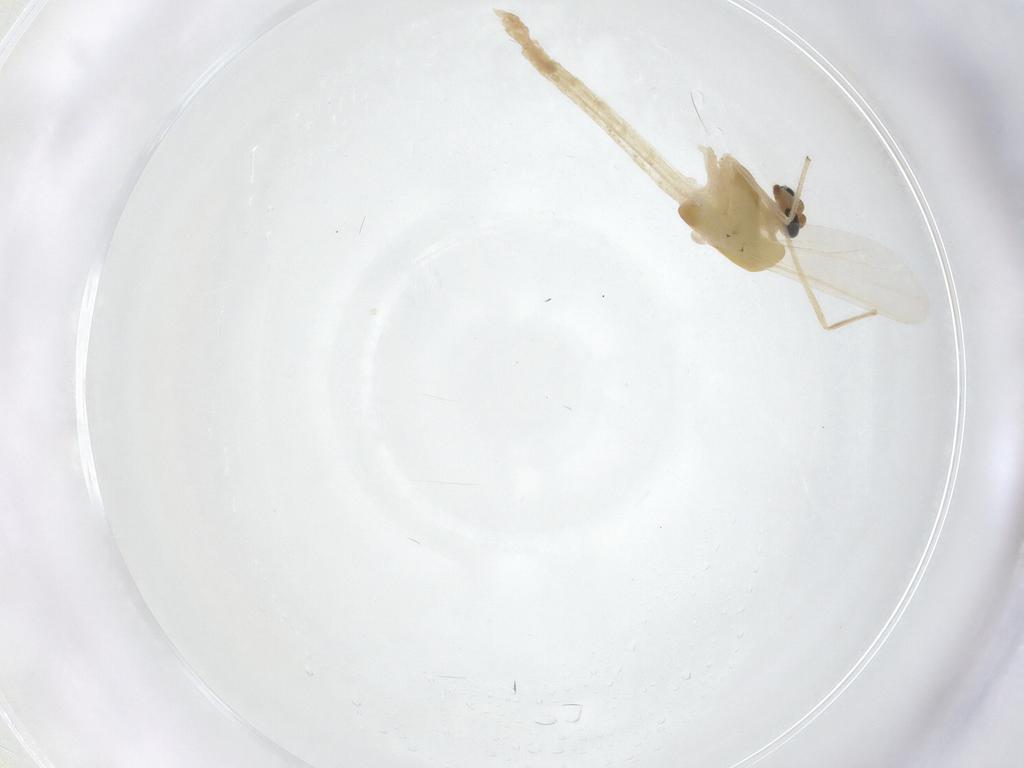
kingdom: Animalia
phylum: Arthropoda
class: Insecta
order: Diptera
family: Chironomidae
